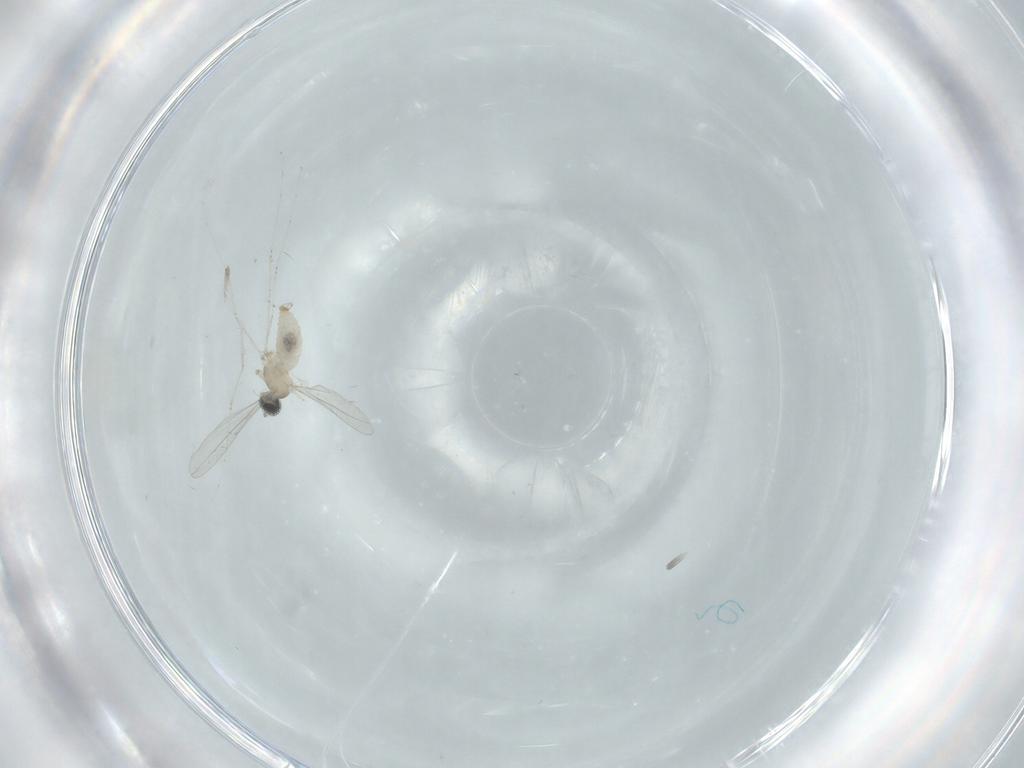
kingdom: Animalia
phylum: Arthropoda
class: Insecta
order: Diptera
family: Cecidomyiidae
